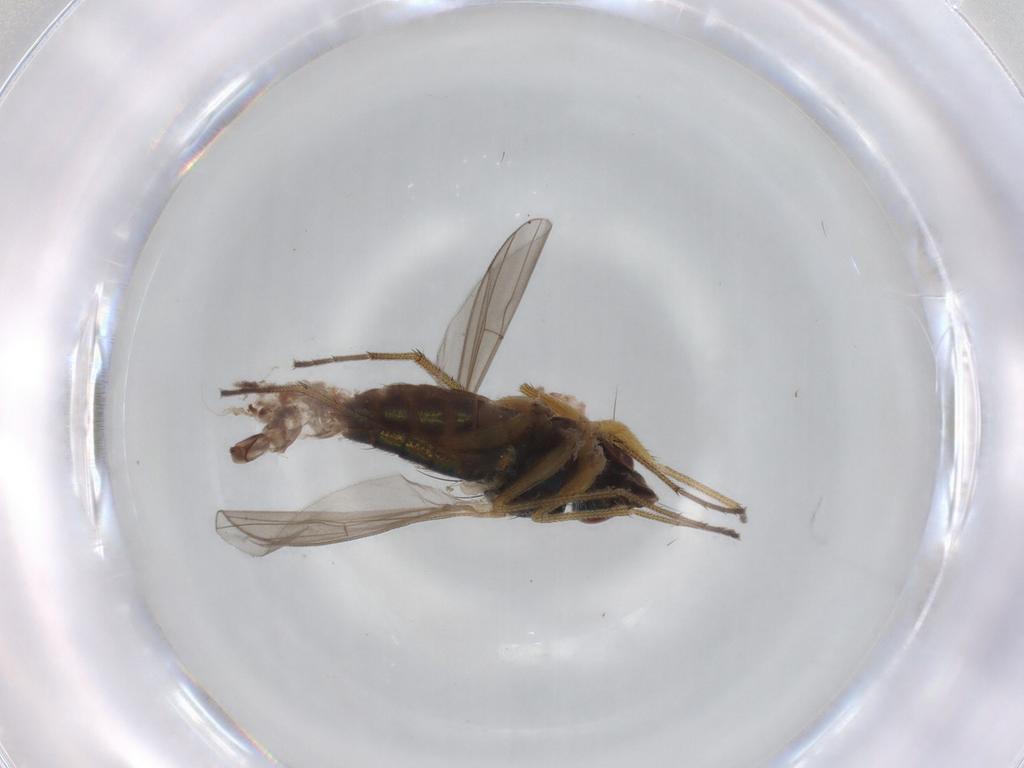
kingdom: Animalia
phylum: Arthropoda
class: Insecta
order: Diptera
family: Dolichopodidae
